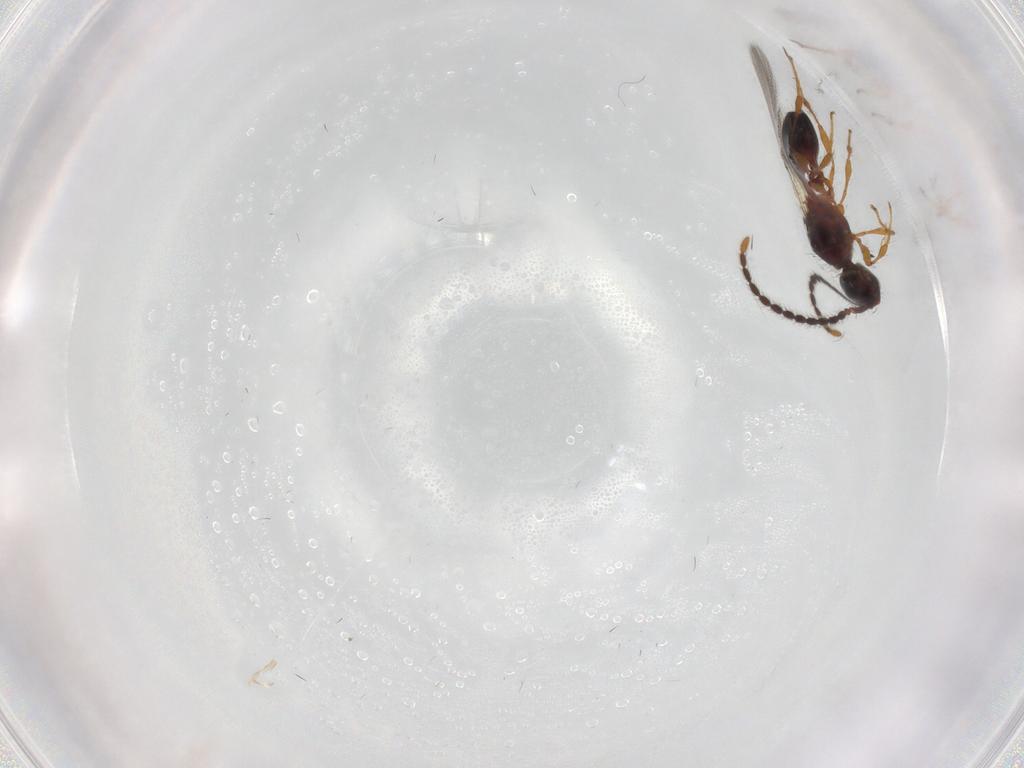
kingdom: Animalia
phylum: Arthropoda
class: Insecta
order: Hymenoptera
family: Diapriidae
